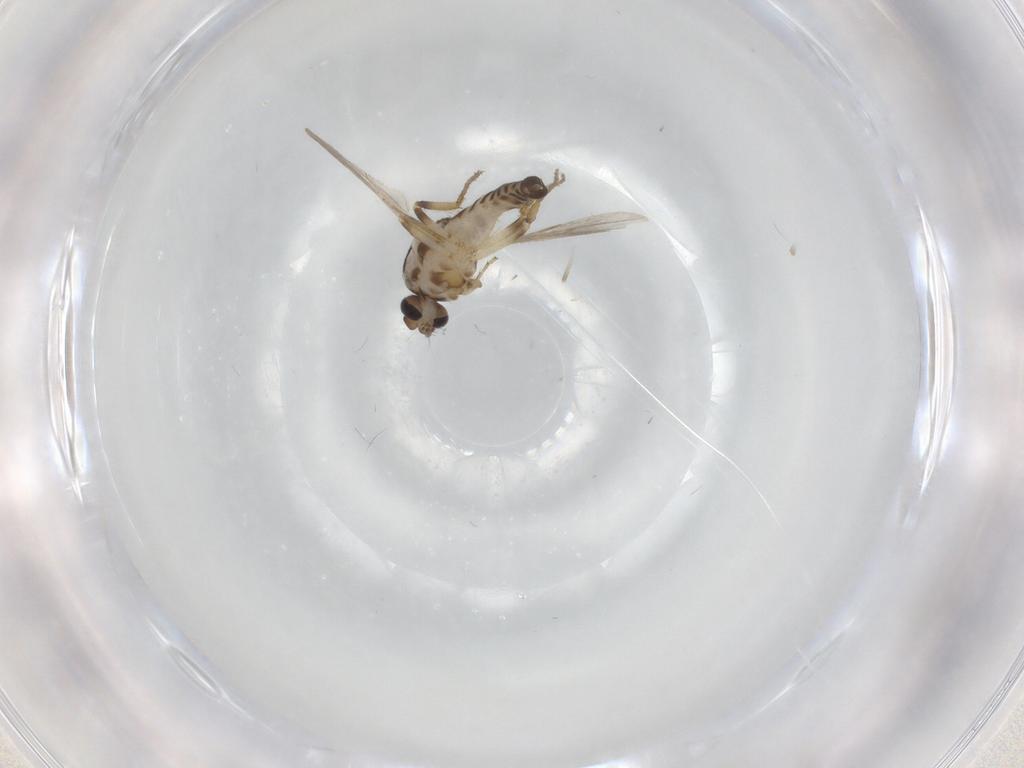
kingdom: Animalia
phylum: Arthropoda
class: Insecta
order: Diptera
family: Ceratopogonidae
